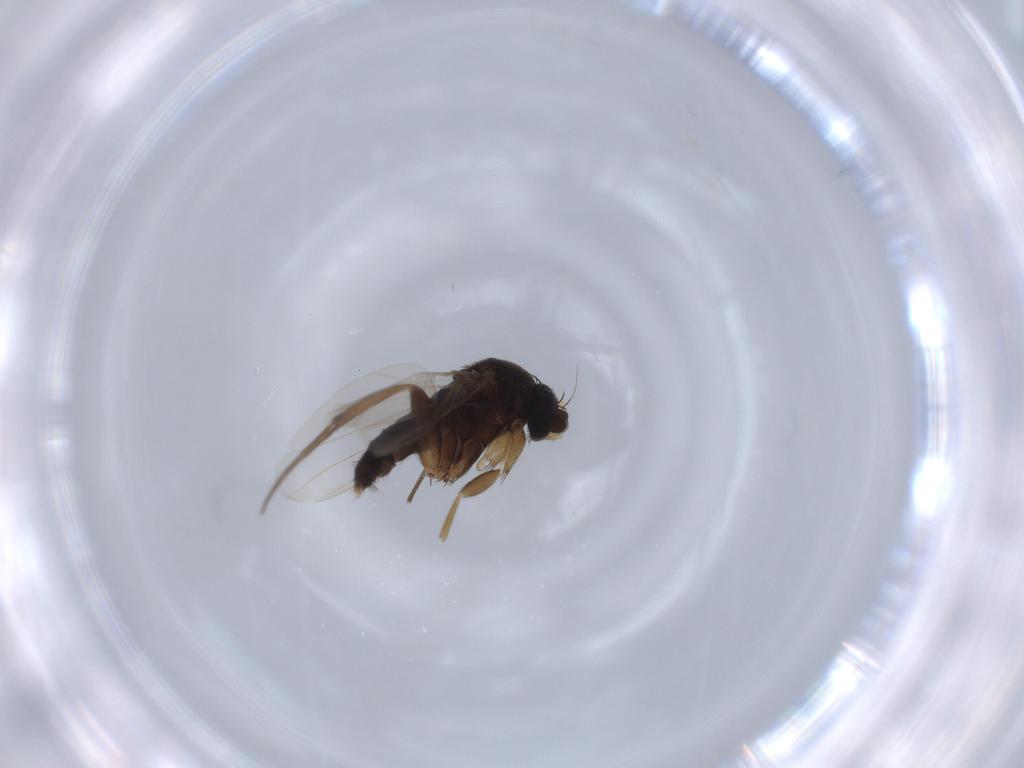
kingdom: Animalia
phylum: Arthropoda
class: Insecta
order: Diptera
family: Phoridae
